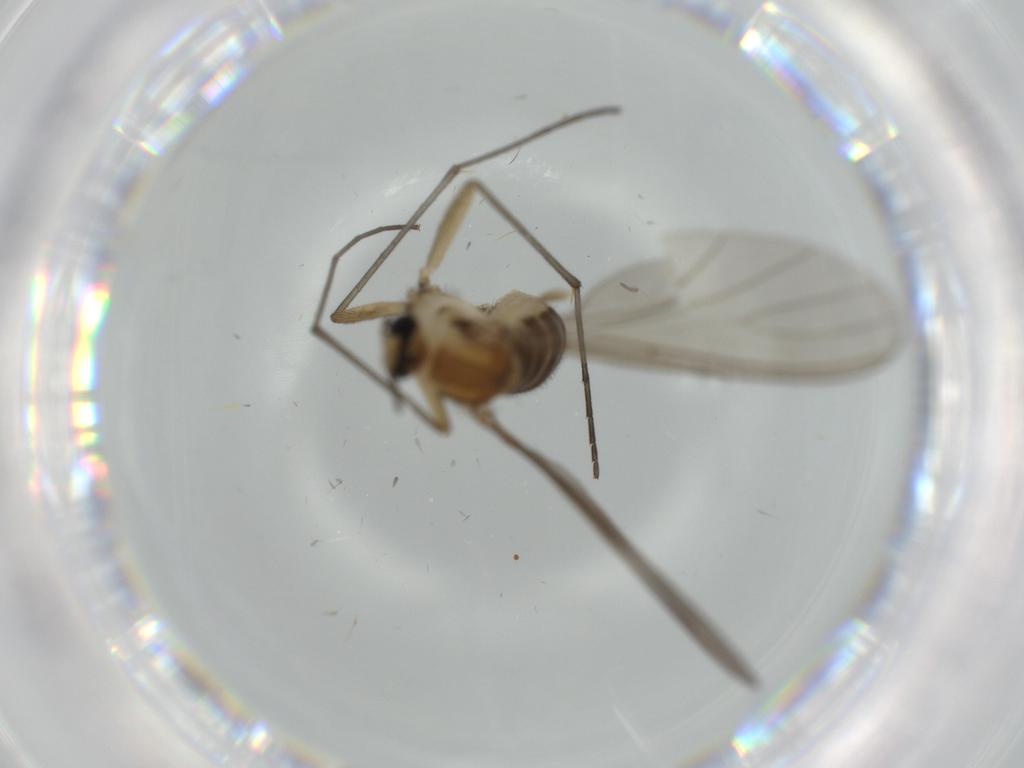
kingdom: Animalia
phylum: Arthropoda
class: Insecta
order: Diptera
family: Sciaridae
